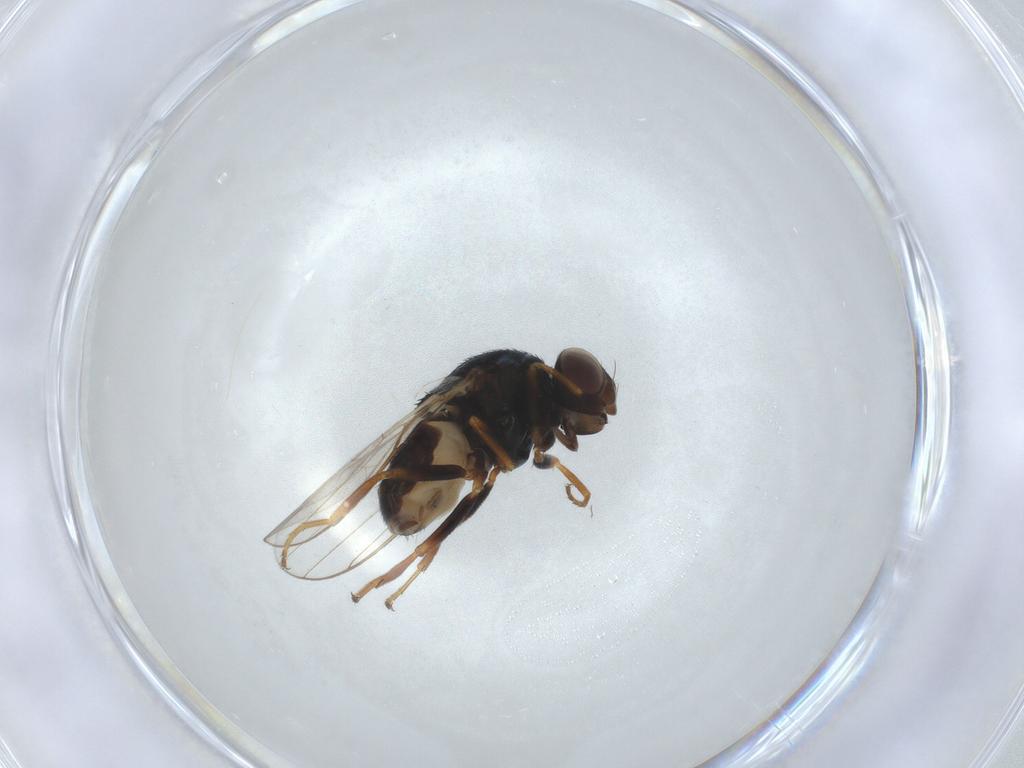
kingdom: Animalia
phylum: Arthropoda
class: Insecta
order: Diptera
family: Chloropidae
